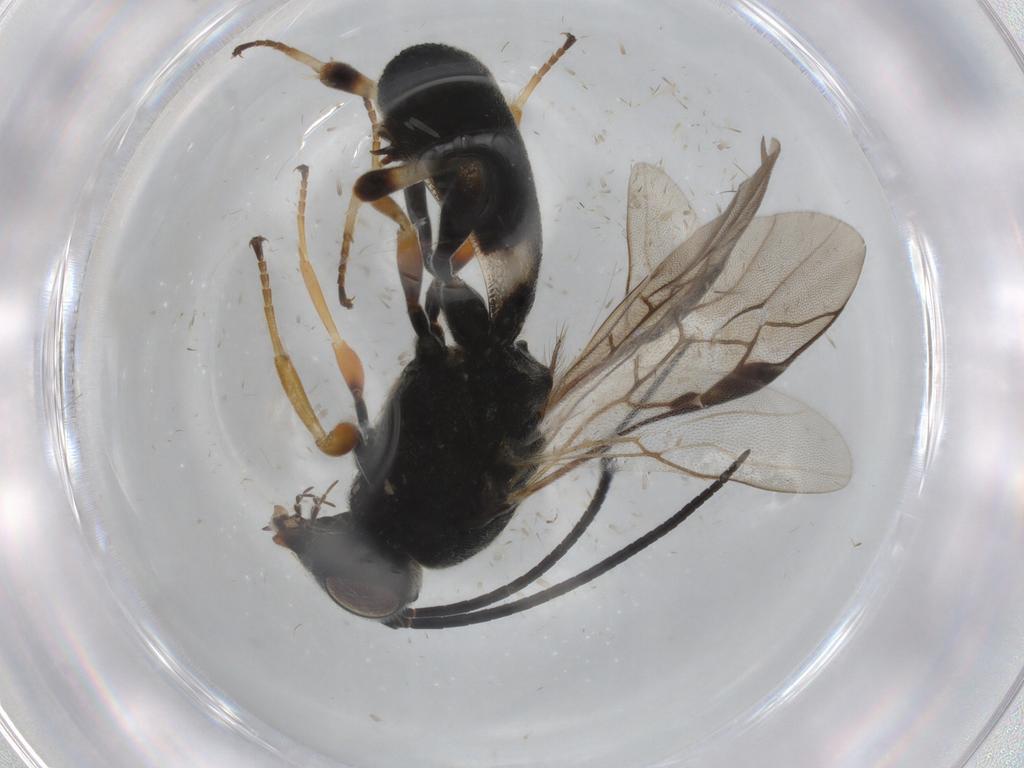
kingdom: Animalia
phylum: Arthropoda
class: Insecta
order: Hymenoptera
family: Braconidae
